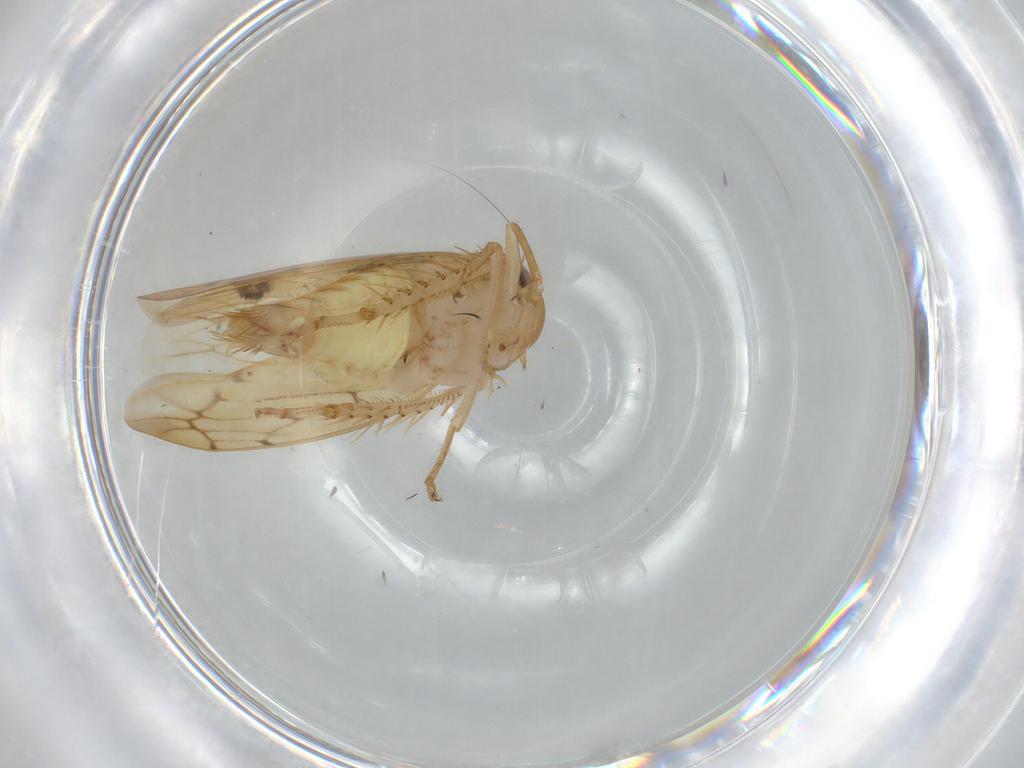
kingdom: Animalia
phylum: Arthropoda
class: Insecta
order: Hemiptera
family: Cicadellidae
